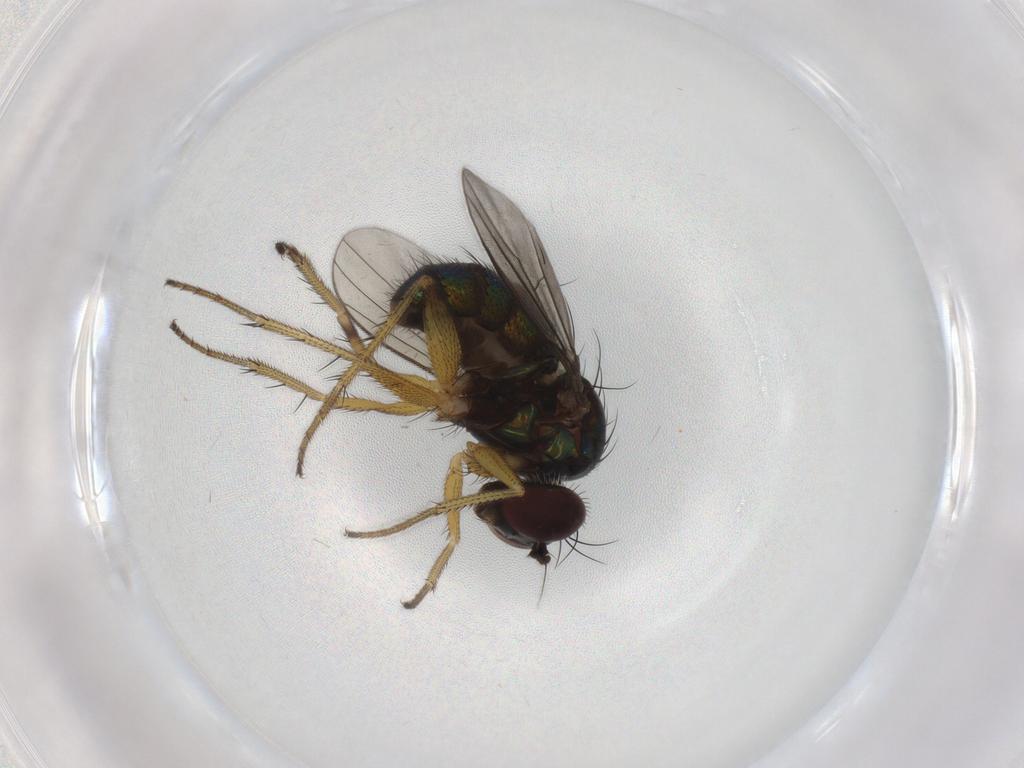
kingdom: Animalia
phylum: Arthropoda
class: Insecta
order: Diptera
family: Dolichopodidae
